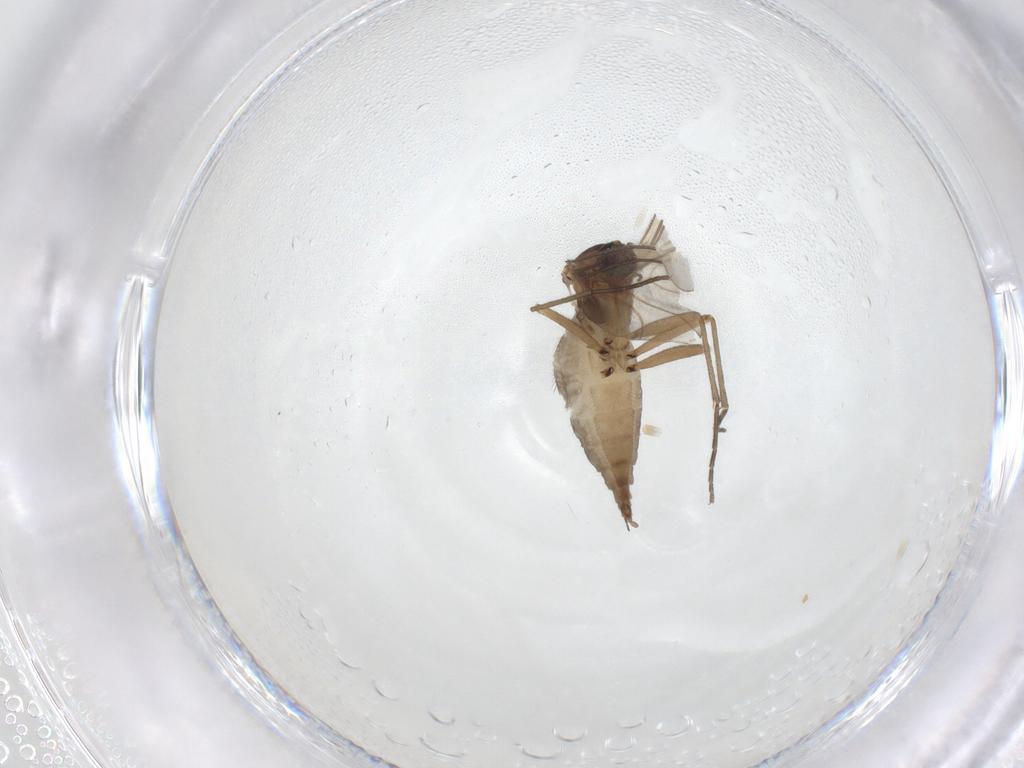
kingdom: Animalia
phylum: Arthropoda
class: Insecta
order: Diptera
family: Sciaridae
